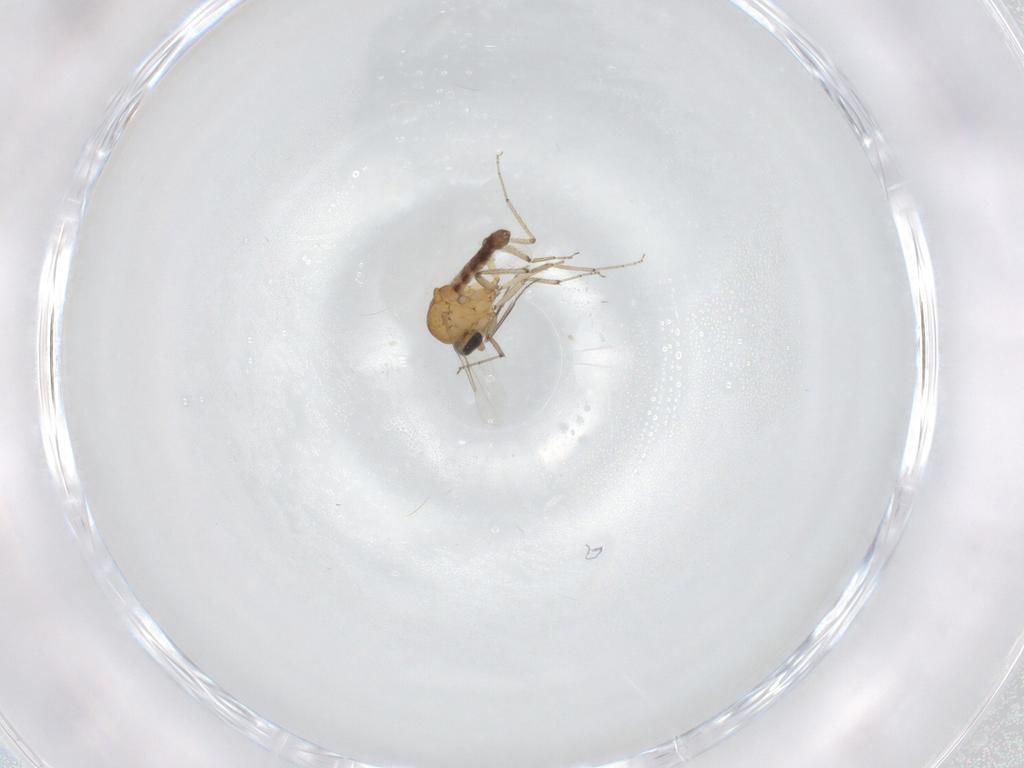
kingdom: Animalia
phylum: Arthropoda
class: Insecta
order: Diptera
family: Ceratopogonidae
